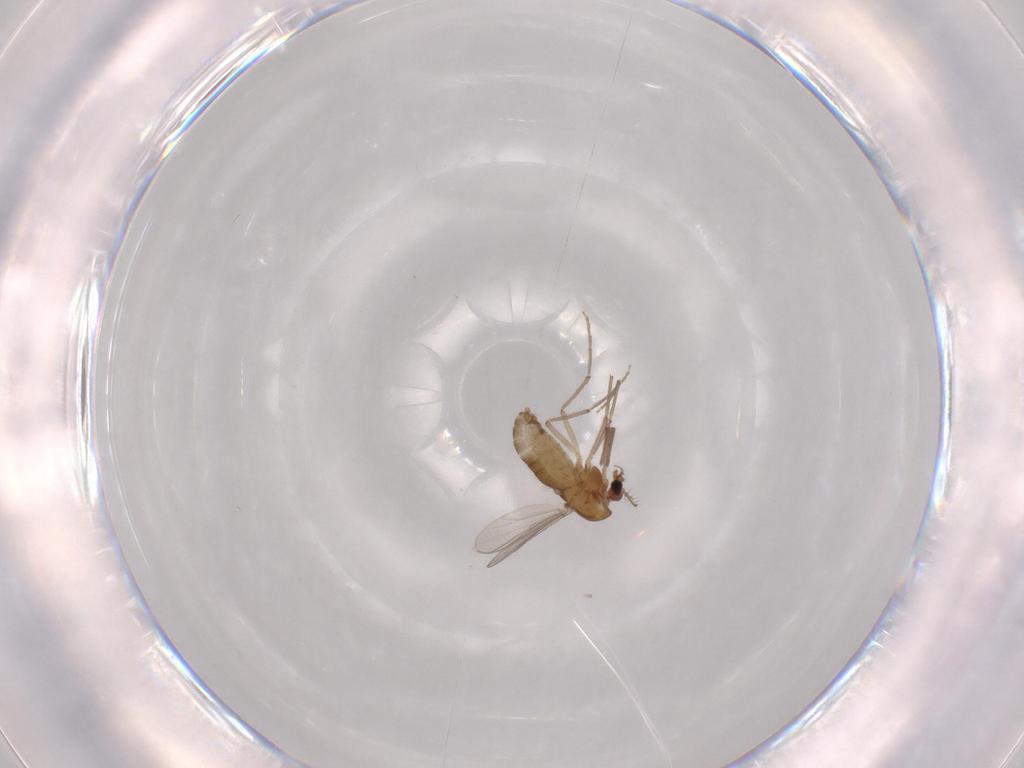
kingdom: Animalia
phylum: Arthropoda
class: Insecta
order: Diptera
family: Chironomidae
